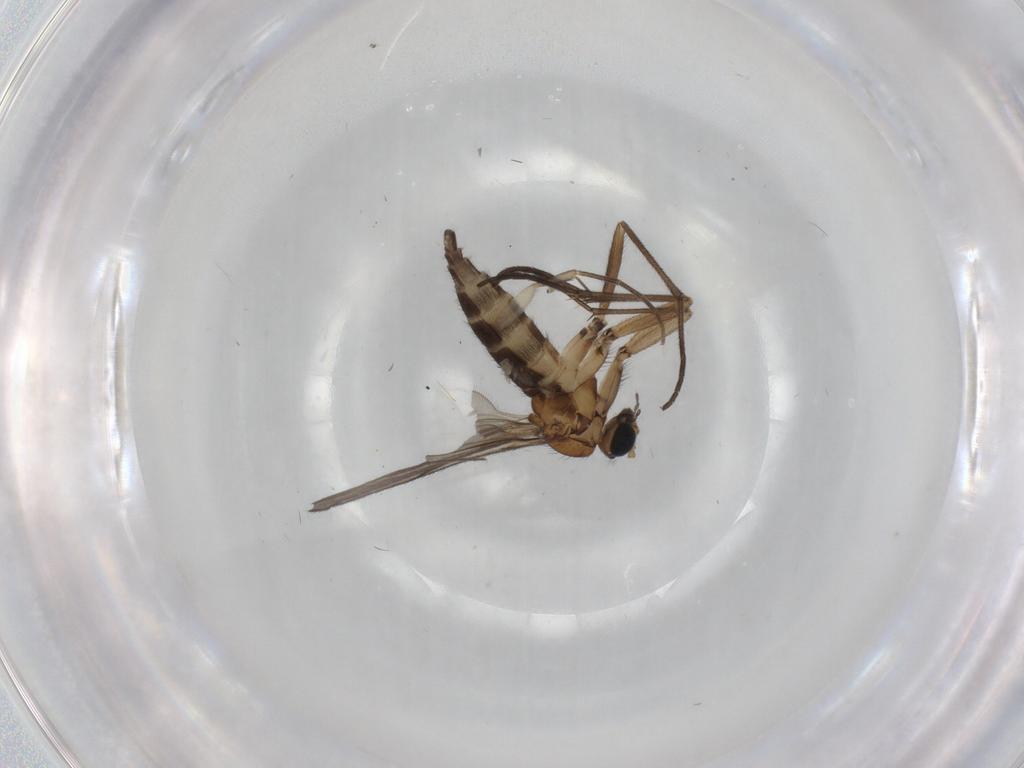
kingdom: Animalia
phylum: Arthropoda
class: Insecta
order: Diptera
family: Sciaridae
